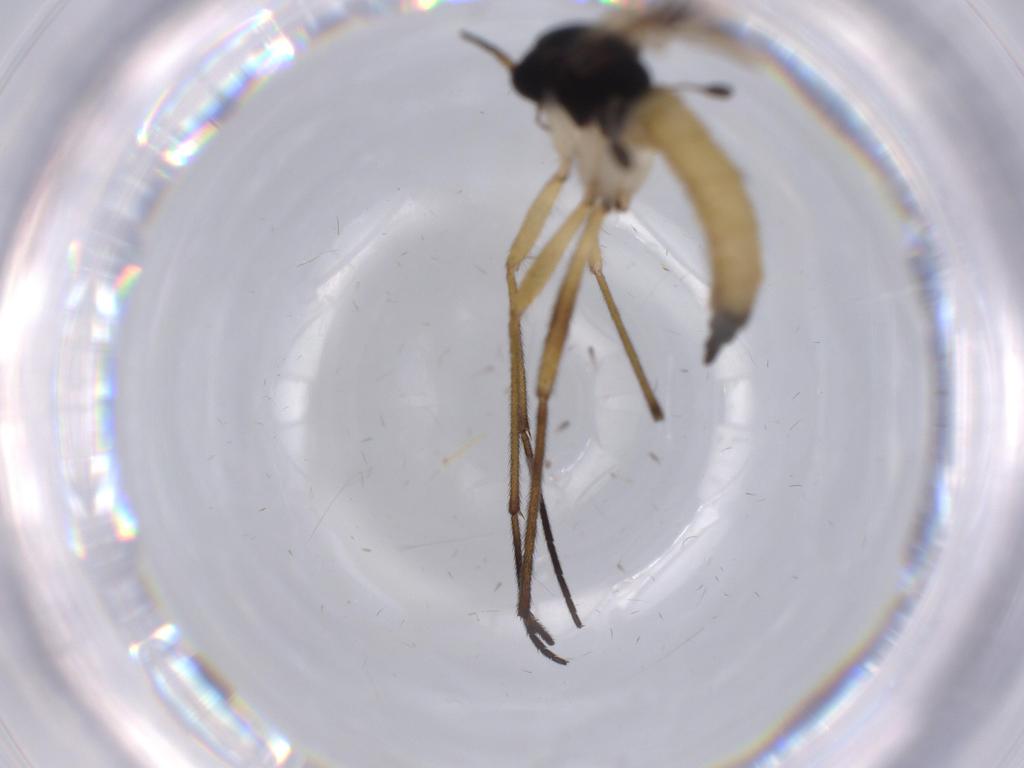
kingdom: Animalia
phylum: Arthropoda
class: Insecta
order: Diptera
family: Sciaridae
